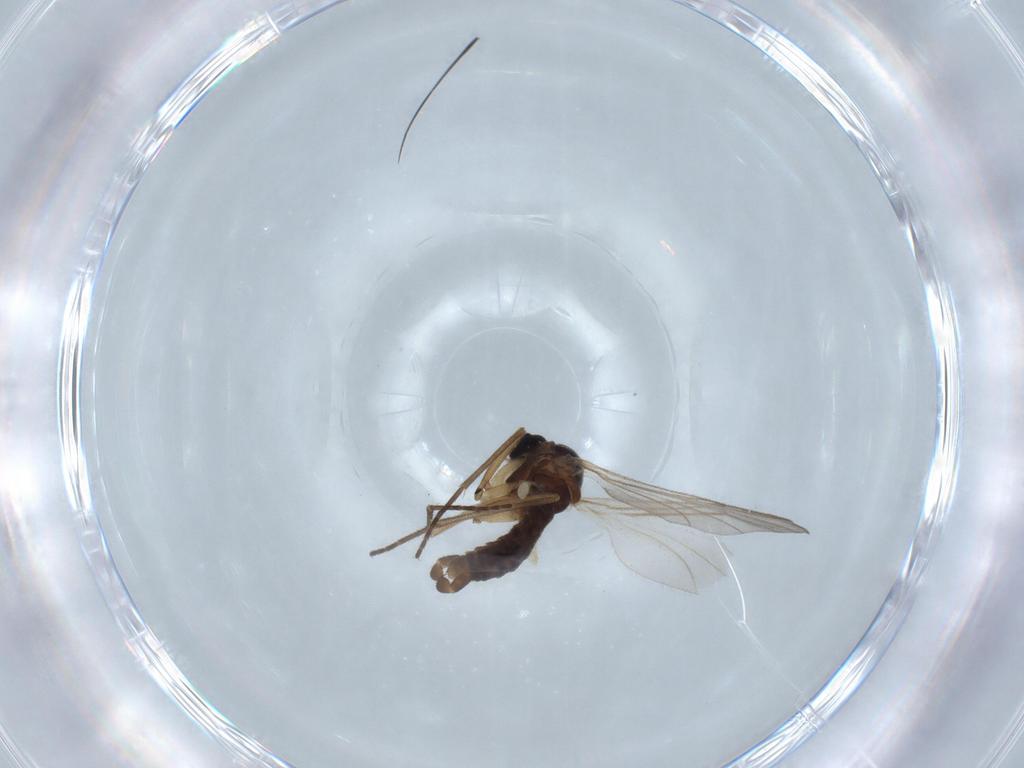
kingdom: Animalia
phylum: Arthropoda
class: Insecta
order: Diptera
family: Sciaridae
